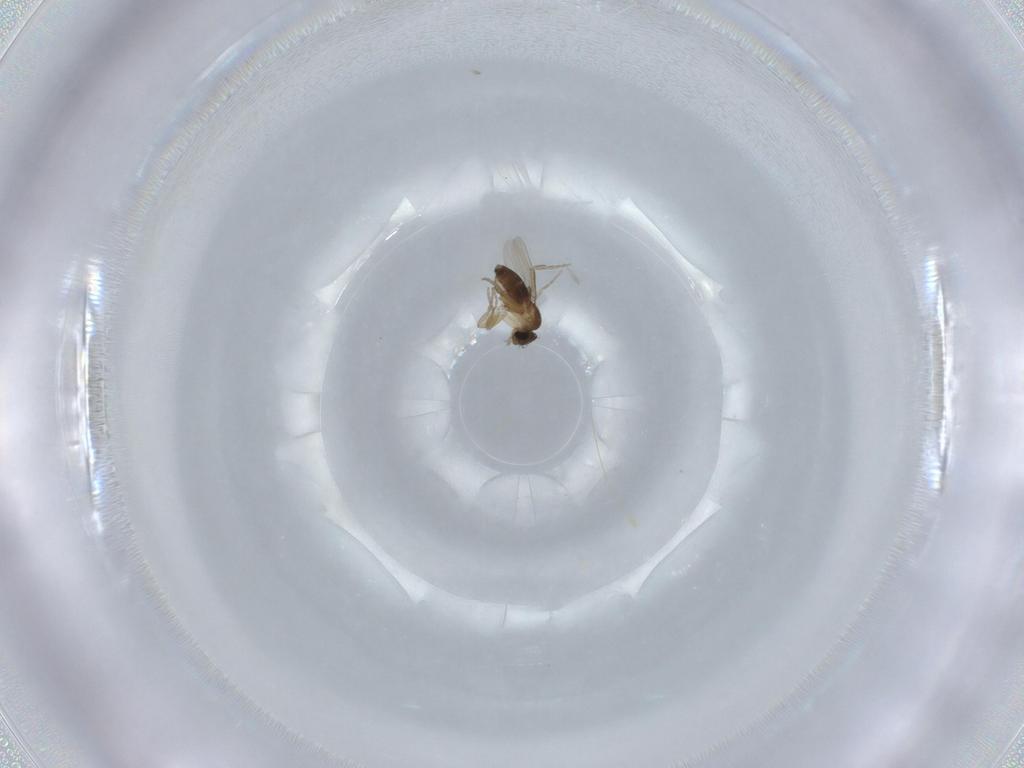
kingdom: Animalia
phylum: Arthropoda
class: Insecta
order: Diptera
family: Phoridae
